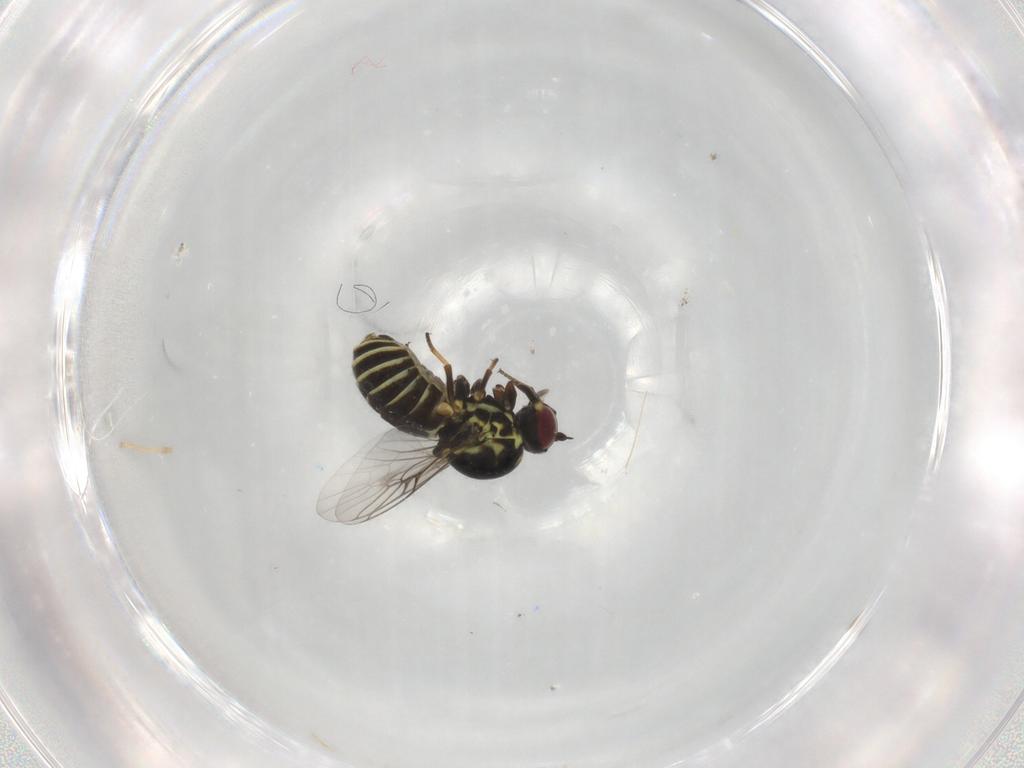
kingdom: Animalia
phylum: Arthropoda
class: Insecta
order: Diptera
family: Bombyliidae
